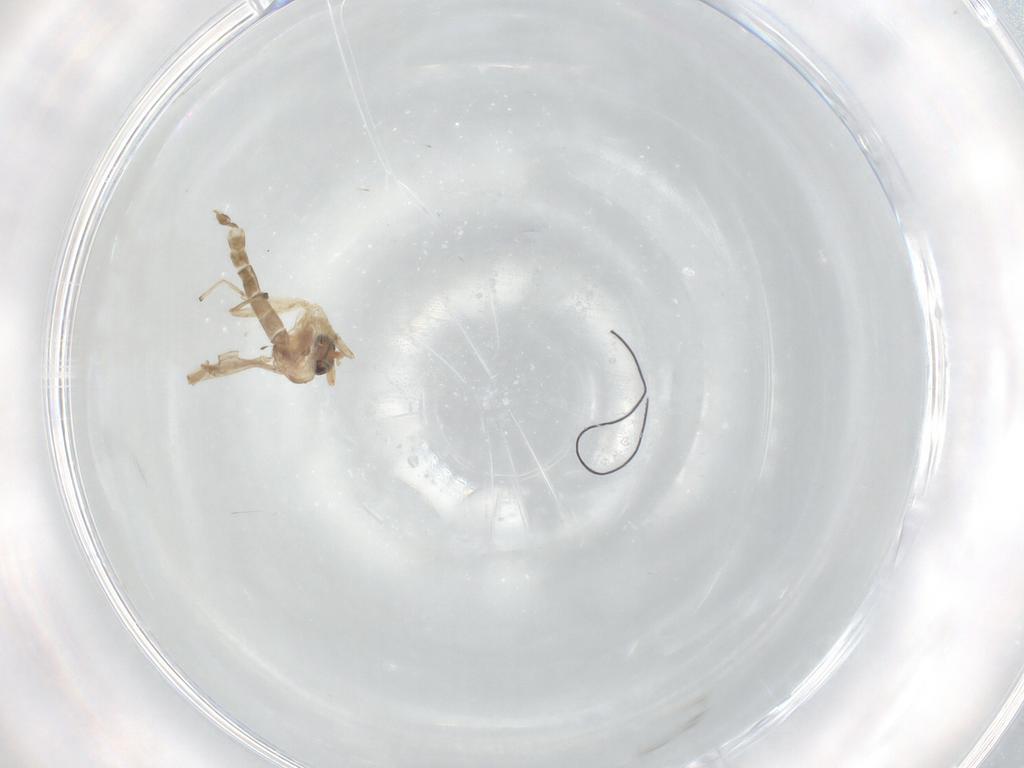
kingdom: Animalia
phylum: Arthropoda
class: Insecta
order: Diptera
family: Chironomidae
